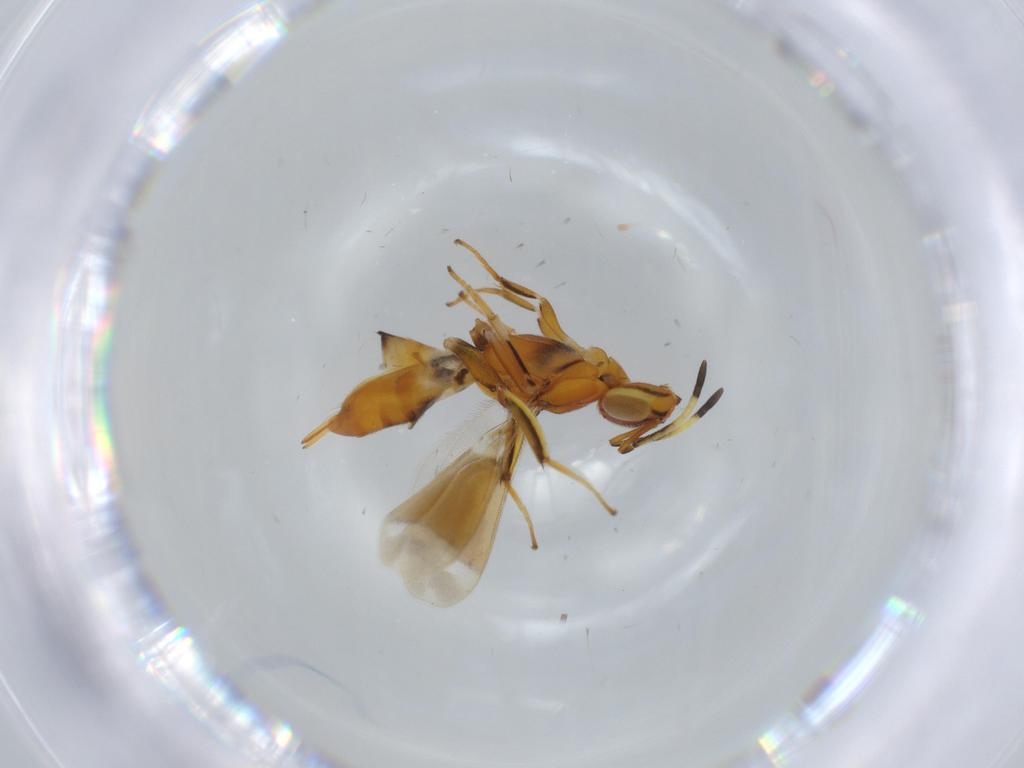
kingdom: Animalia
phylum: Arthropoda
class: Insecta
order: Hymenoptera
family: Eupelmidae
